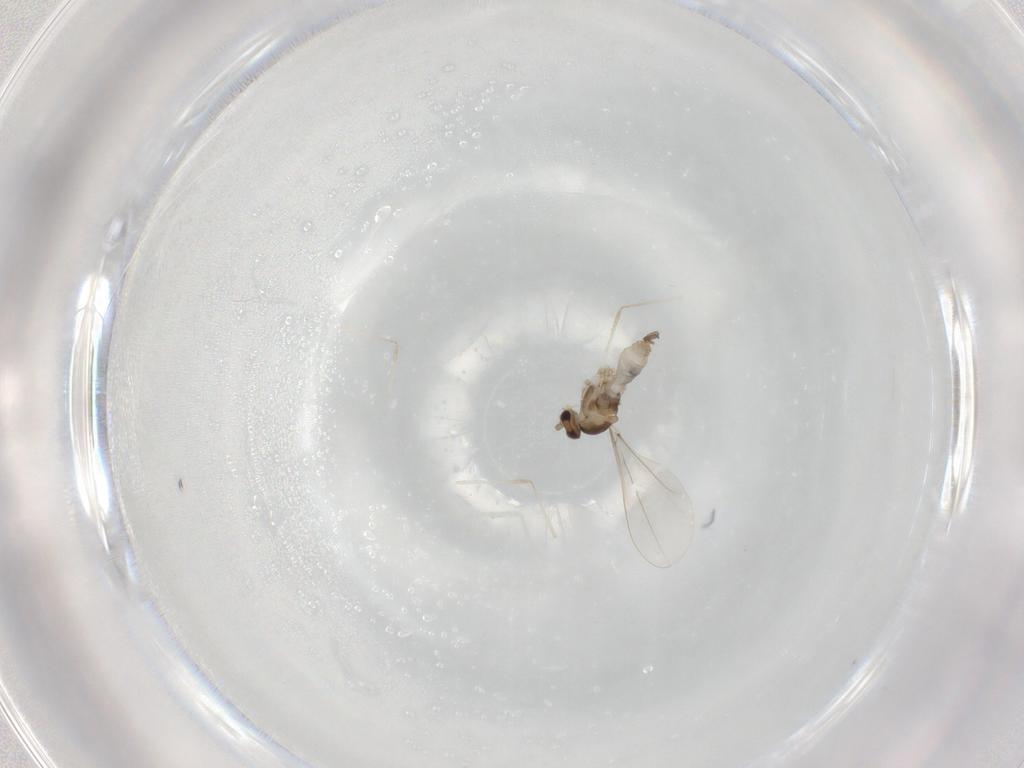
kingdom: Animalia
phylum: Arthropoda
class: Insecta
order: Diptera
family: Cecidomyiidae
